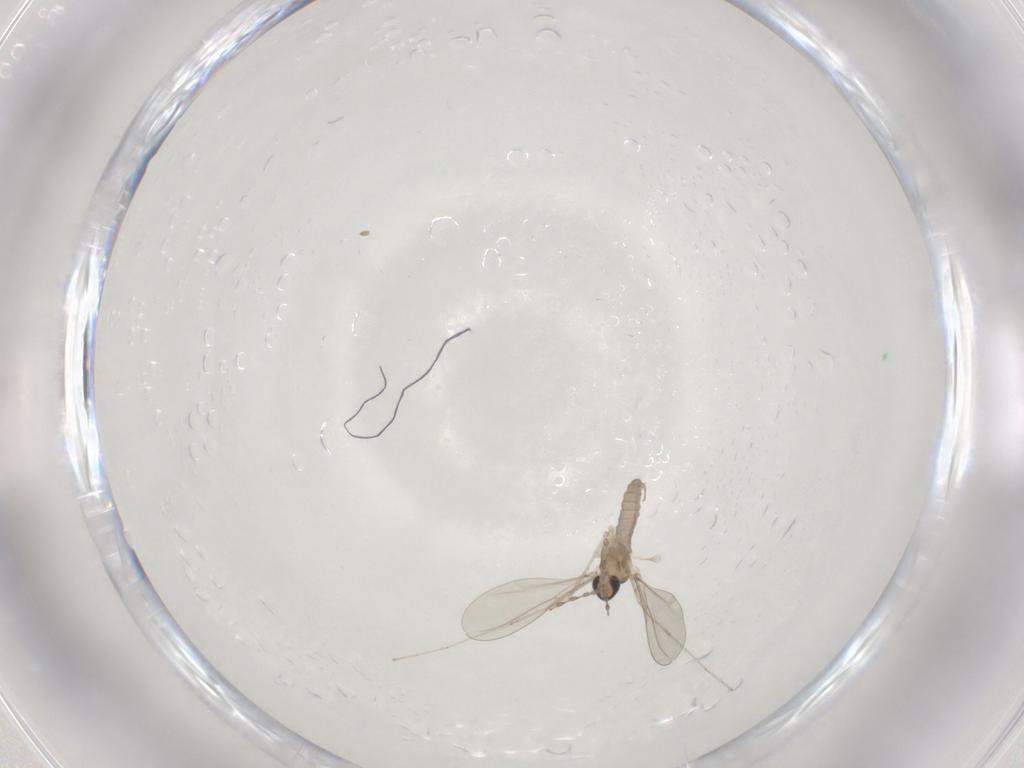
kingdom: Animalia
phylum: Arthropoda
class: Insecta
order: Diptera
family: Cecidomyiidae
